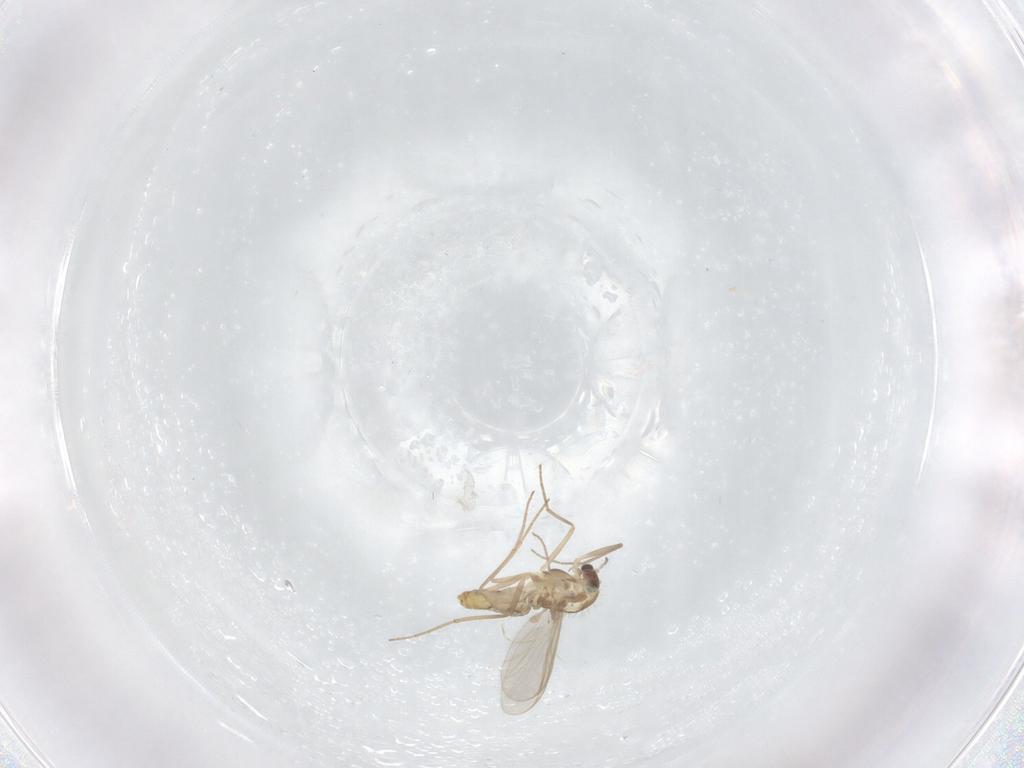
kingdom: Animalia
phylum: Arthropoda
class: Insecta
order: Diptera
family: Chironomidae
